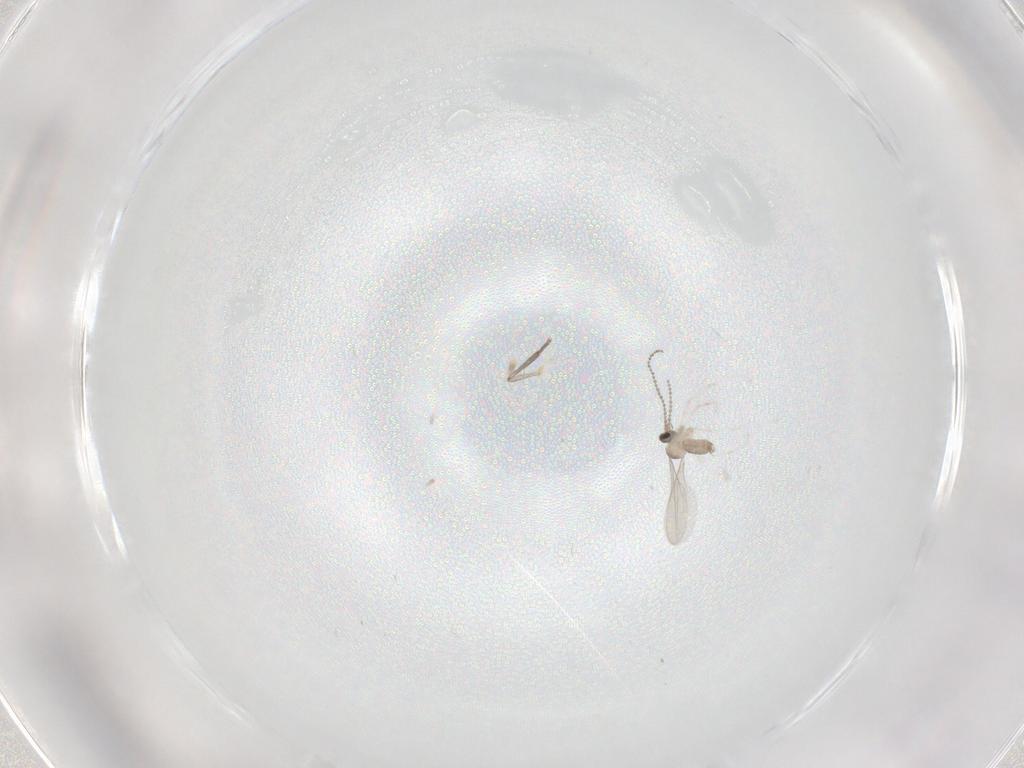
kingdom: Animalia
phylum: Arthropoda
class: Insecta
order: Diptera
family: Cecidomyiidae
